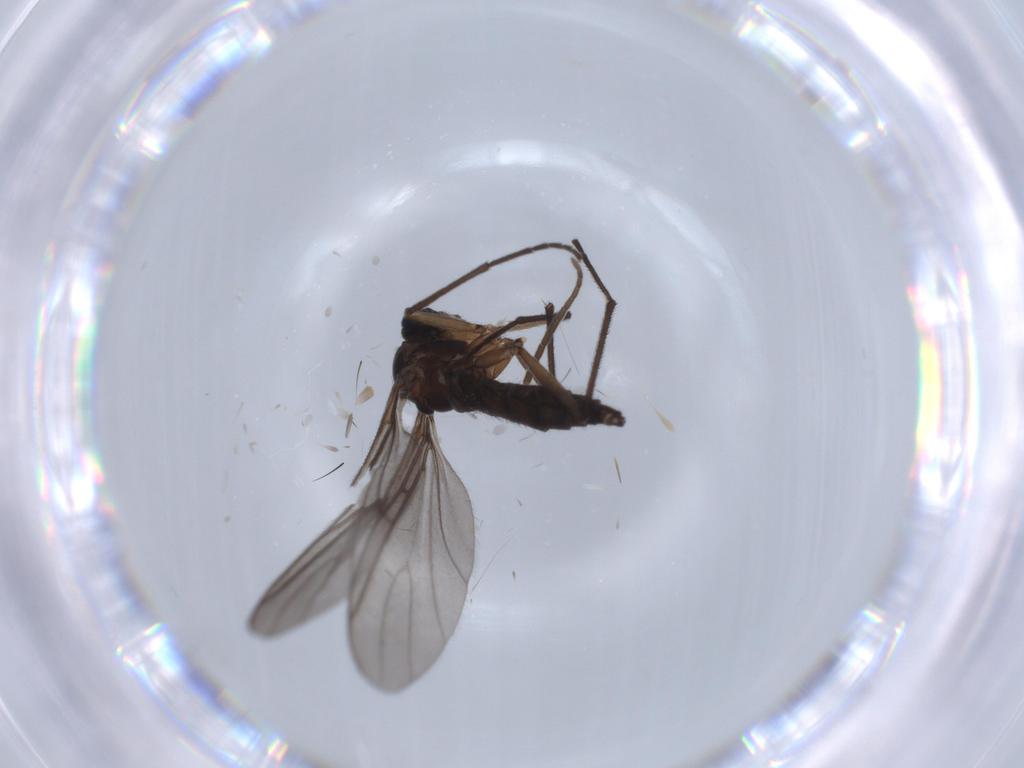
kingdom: Animalia
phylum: Arthropoda
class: Insecta
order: Diptera
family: Sciaridae
